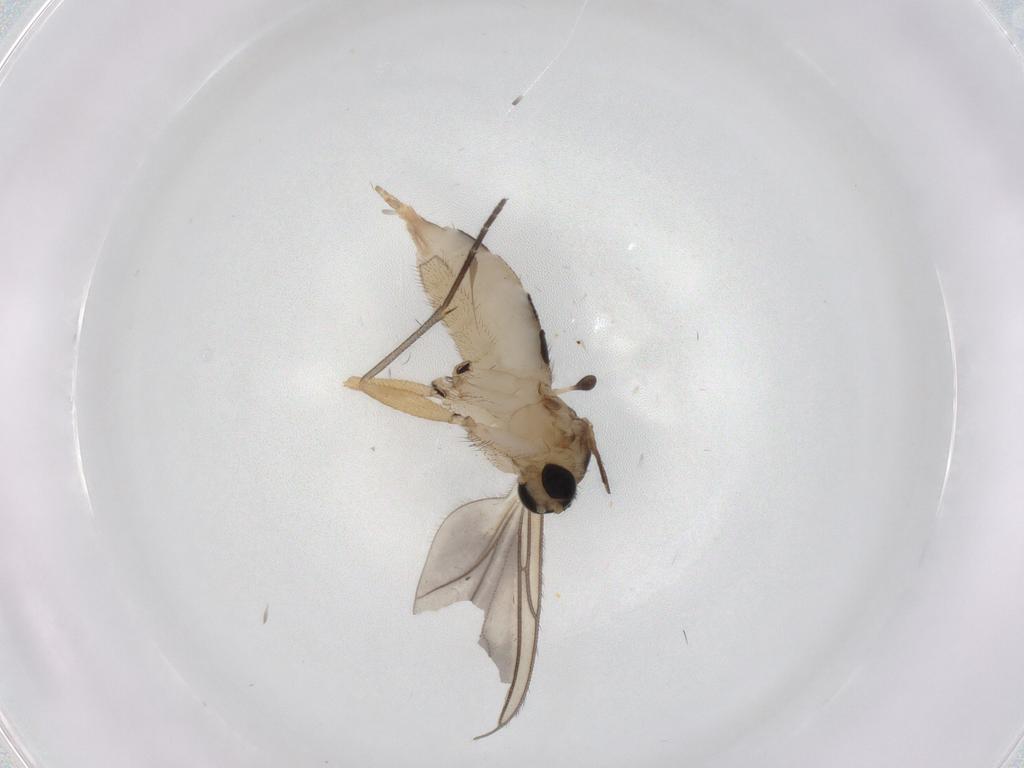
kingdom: Animalia
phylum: Arthropoda
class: Insecta
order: Diptera
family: Sciaridae
